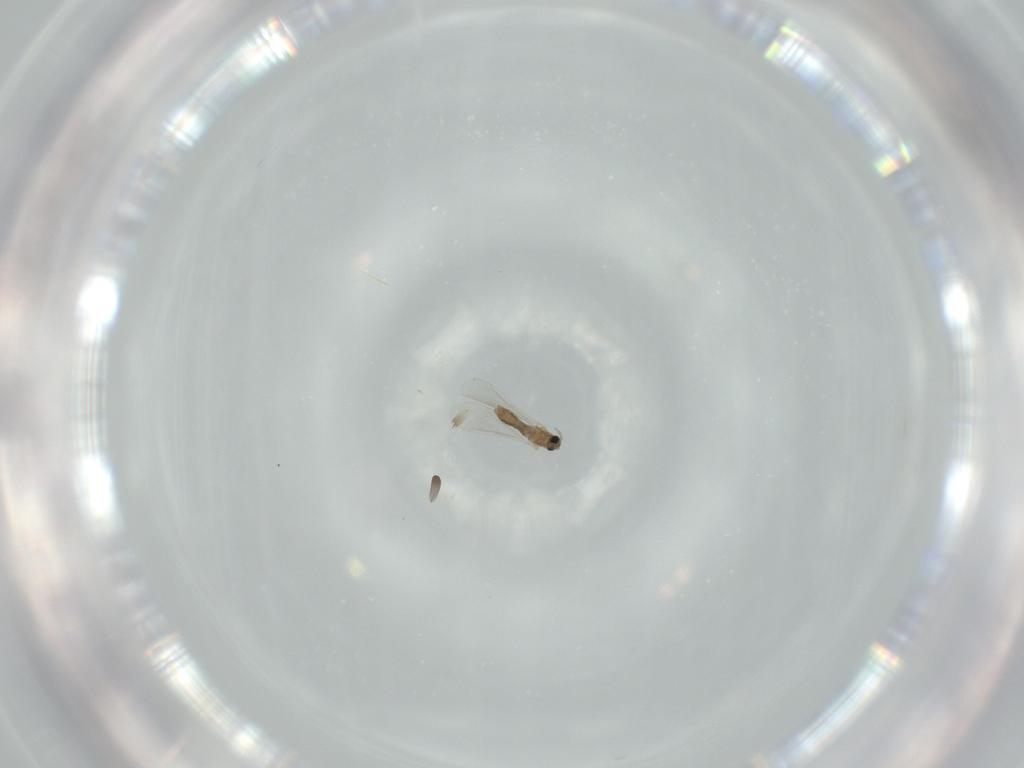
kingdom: Animalia
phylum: Arthropoda
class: Insecta
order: Diptera
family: Cecidomyiidae
